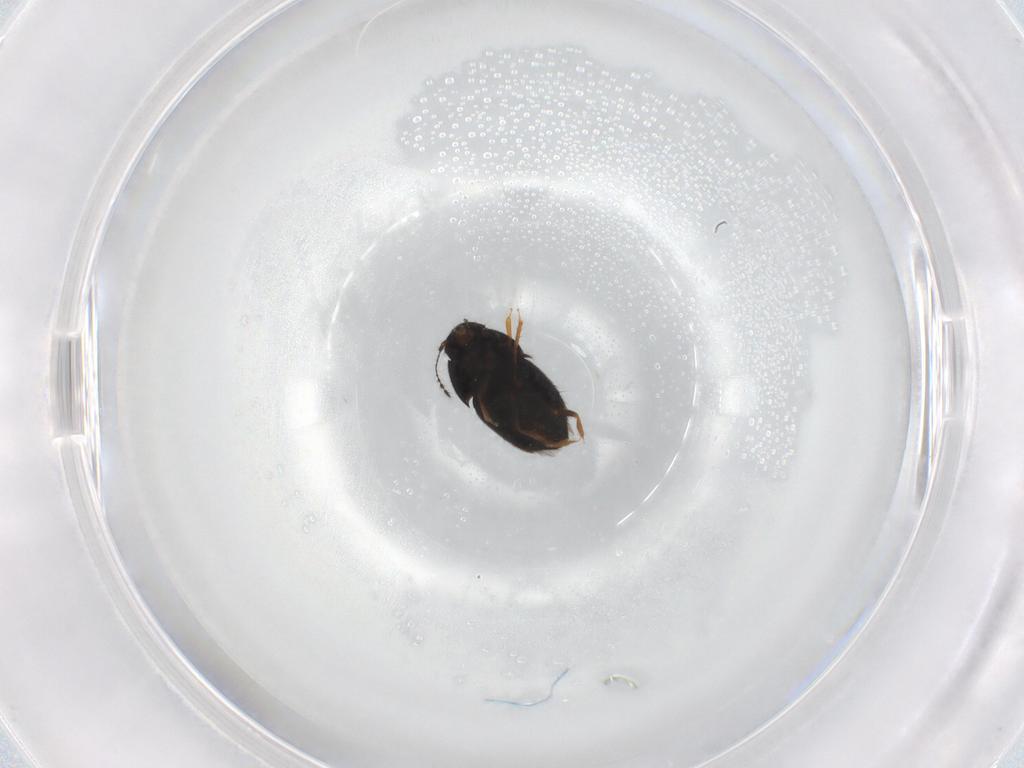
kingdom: Animalia
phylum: Arthropoda
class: Insecta
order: Coleoptera
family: Ptiliidae
